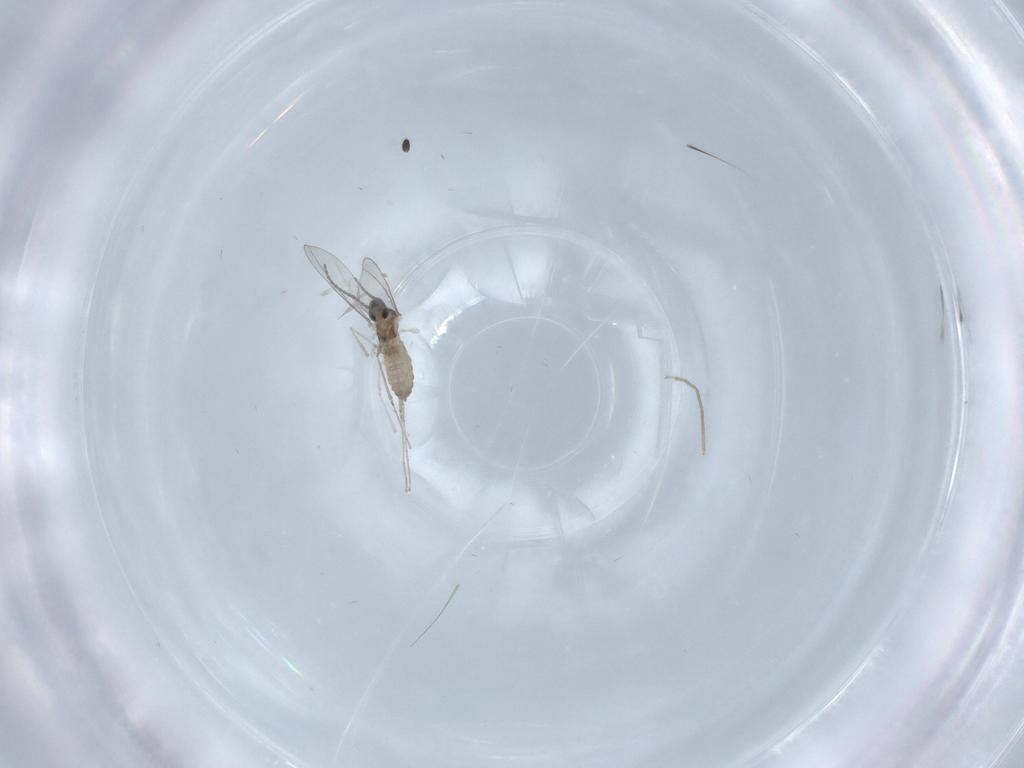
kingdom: Animalia
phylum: Arthropoda
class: Insecta
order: Diptera
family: Cecidomyiidae
